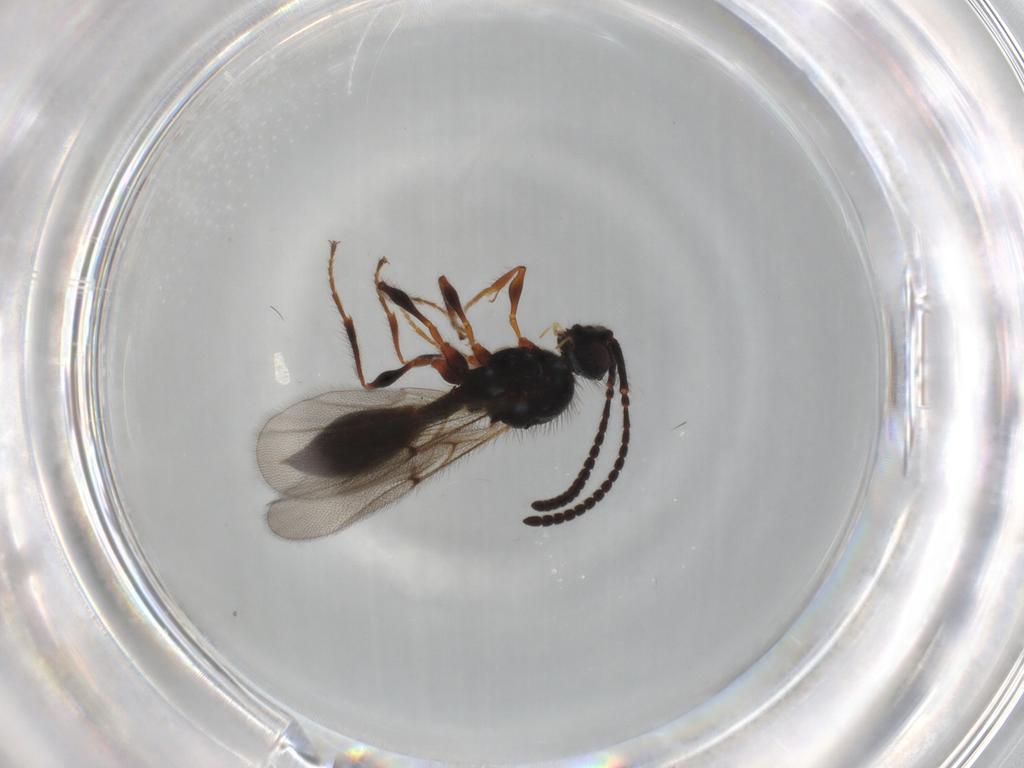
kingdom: Animalia
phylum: Arthropoda
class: Insecta
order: Hymenoptera
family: Diapriidae
